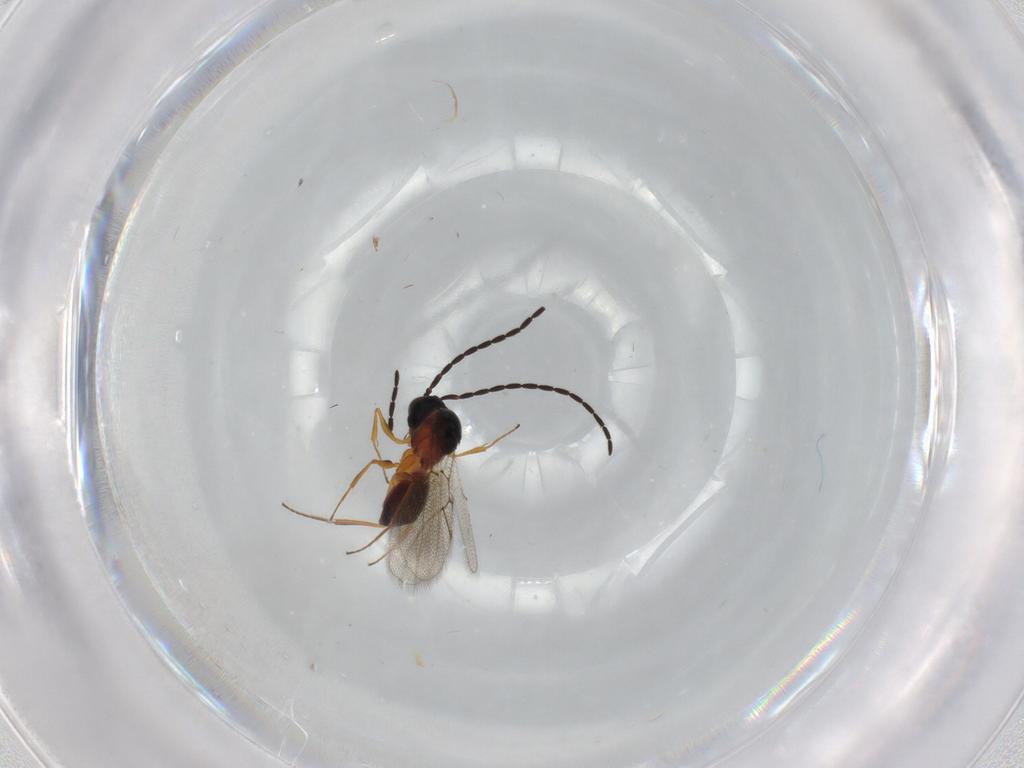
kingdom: Animalia
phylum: Arthropoda
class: Insecta
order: Hymenoptera
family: Figitidae
